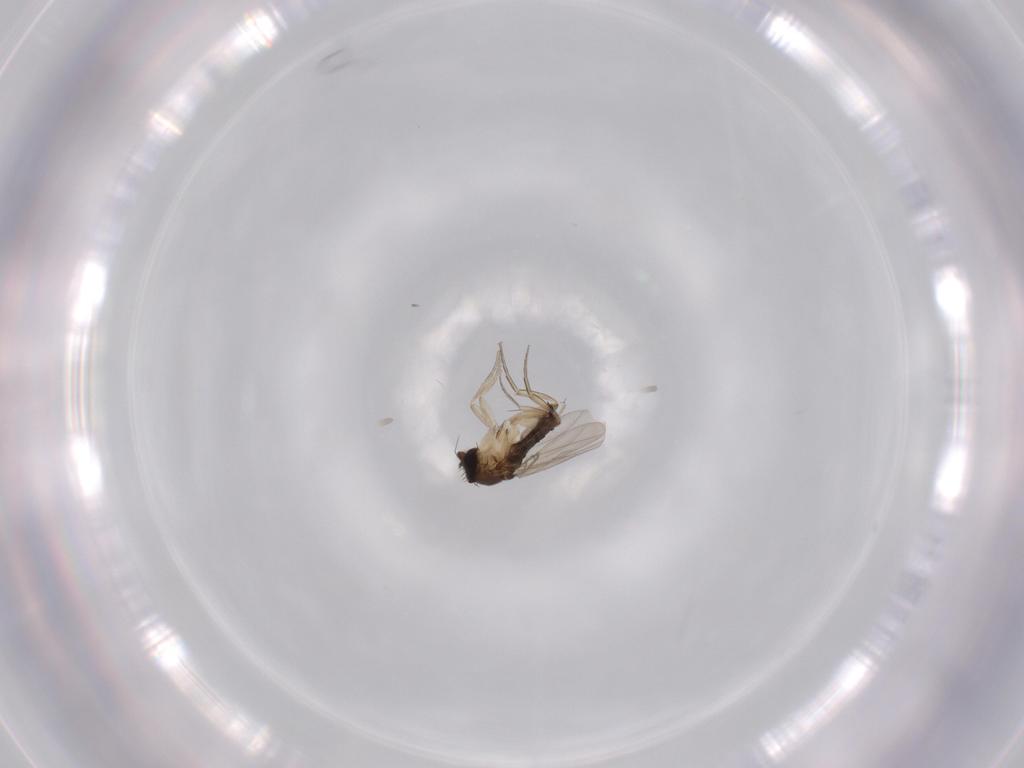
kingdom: Animalia
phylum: Arthropoda
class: Insecta
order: Diptera
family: Phoridae
